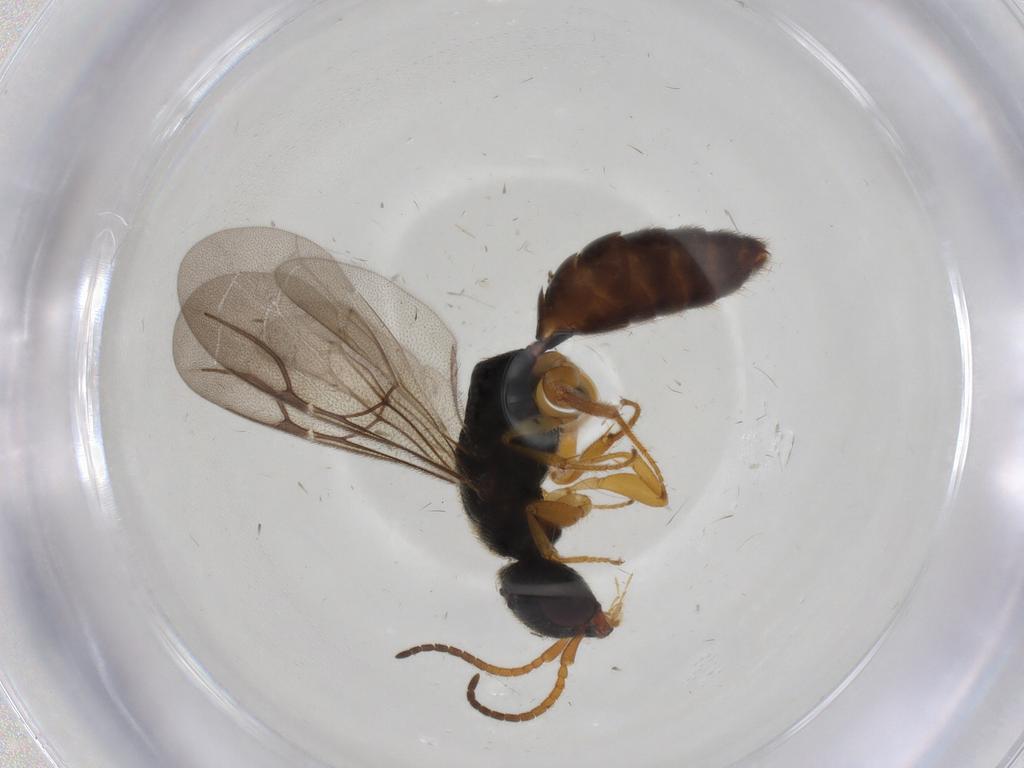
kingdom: Animalia
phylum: Arthropoda
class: Insecta
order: Hymenoptera
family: Bethylidae
